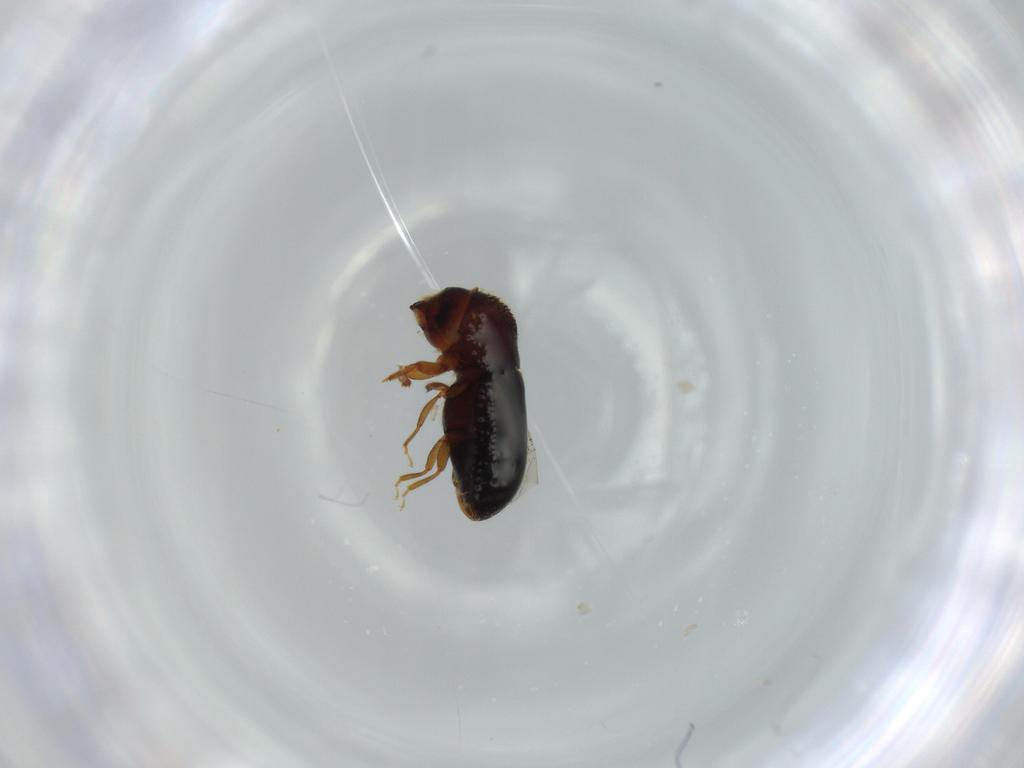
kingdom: Animalia
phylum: Arthropoda
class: Insecta
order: Coleoptera
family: Curculionidae
